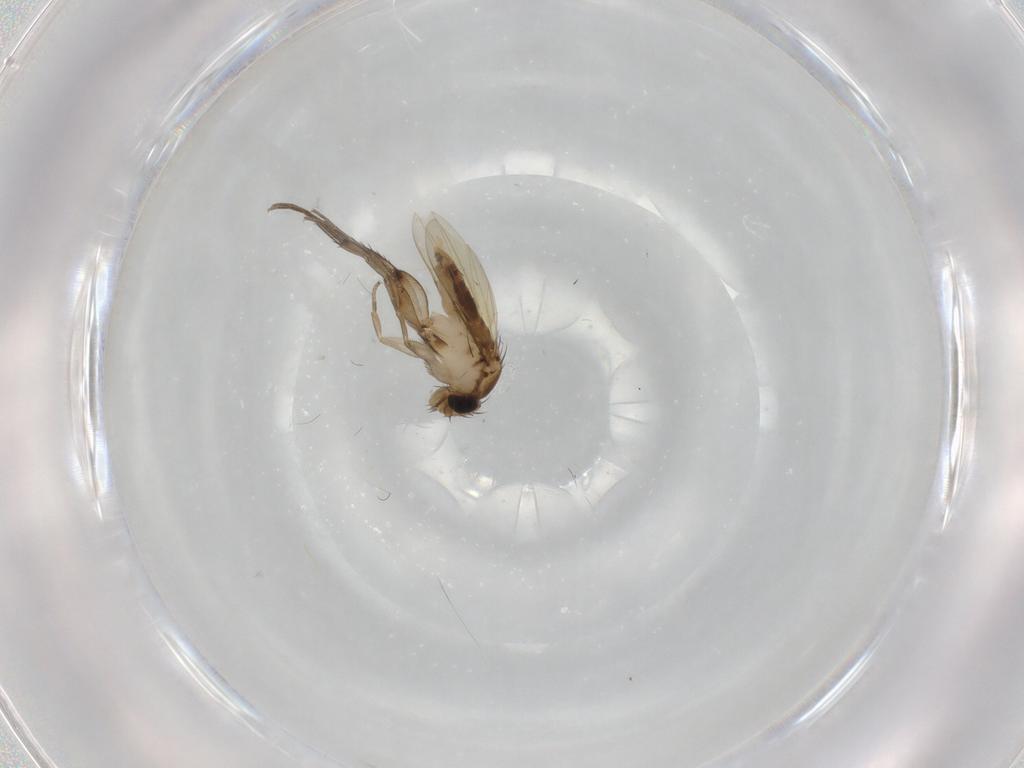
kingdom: Animalia
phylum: Arthropoda
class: Insecta
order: Diptera
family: Phoridae
